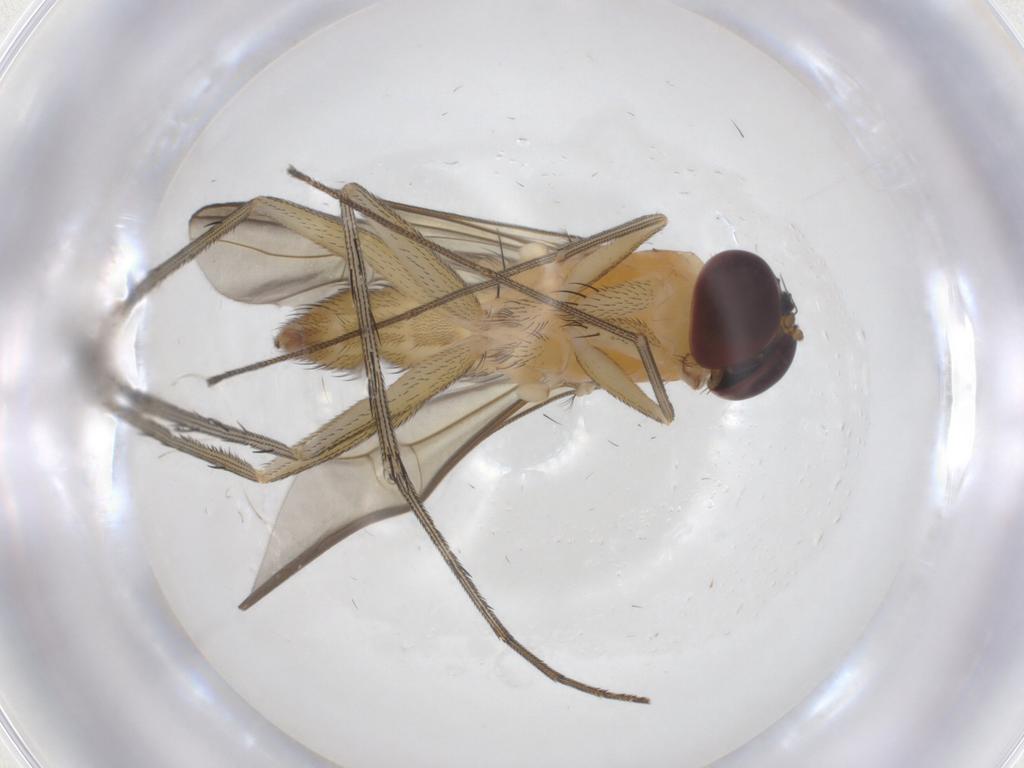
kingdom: Animalia
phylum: Arthropoda
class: Insecta
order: Diptera
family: Dolichopodidae
